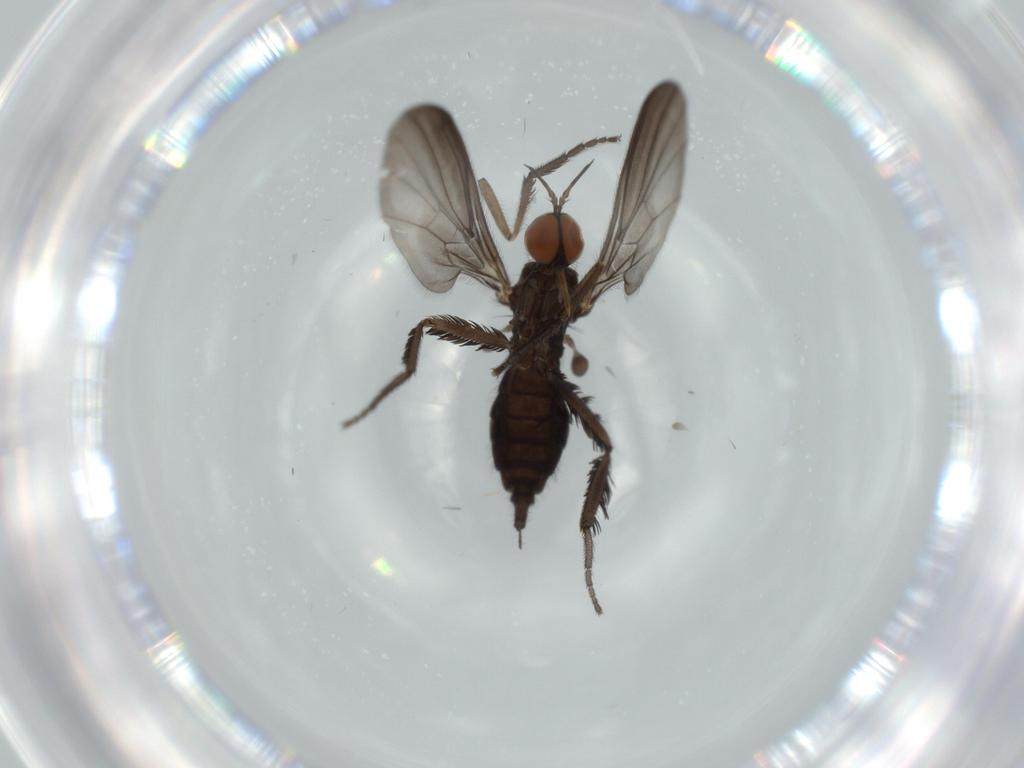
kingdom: Animalia
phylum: Arthropoda
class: Insecta
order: Diptera
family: Empididae
